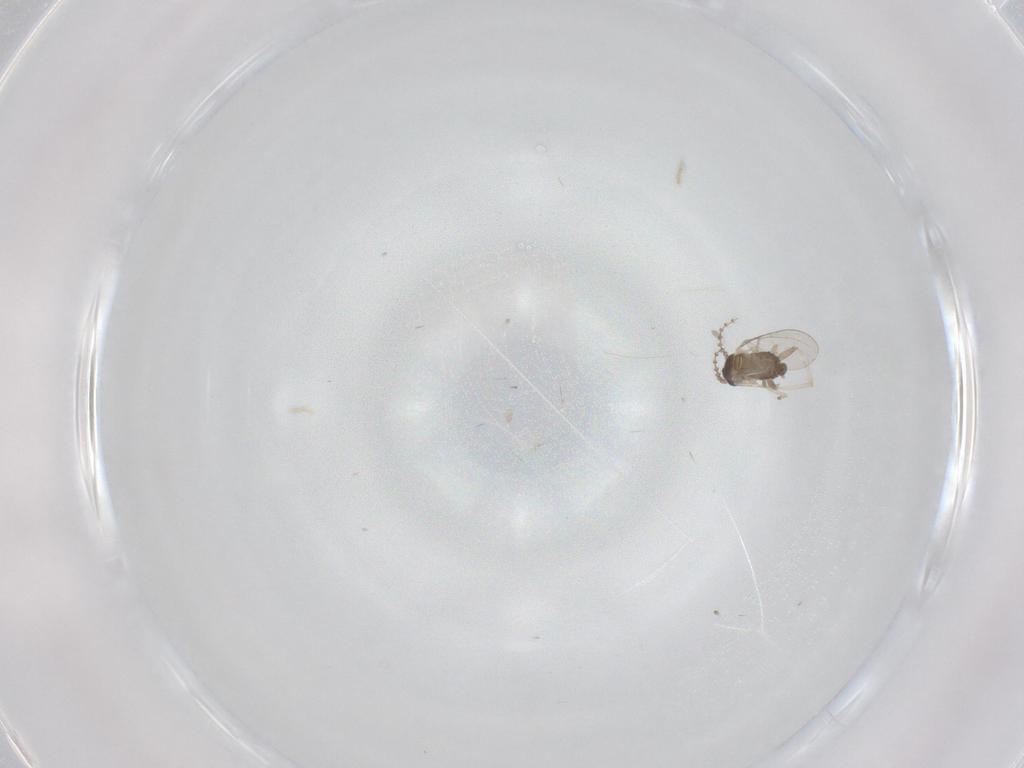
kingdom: Animalia
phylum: Arthropoda
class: Insecta
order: Diptera
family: Cecidomyiidae
